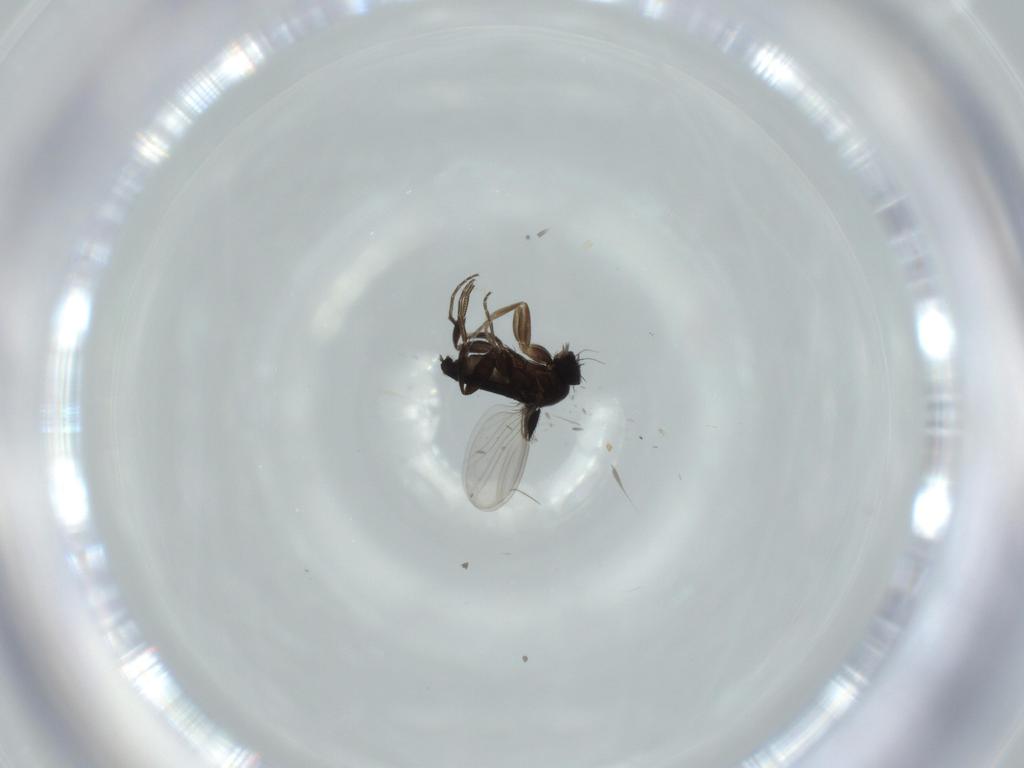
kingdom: Animalia
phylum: Arthropoda
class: Insecta
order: Diptera
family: Phoridae
